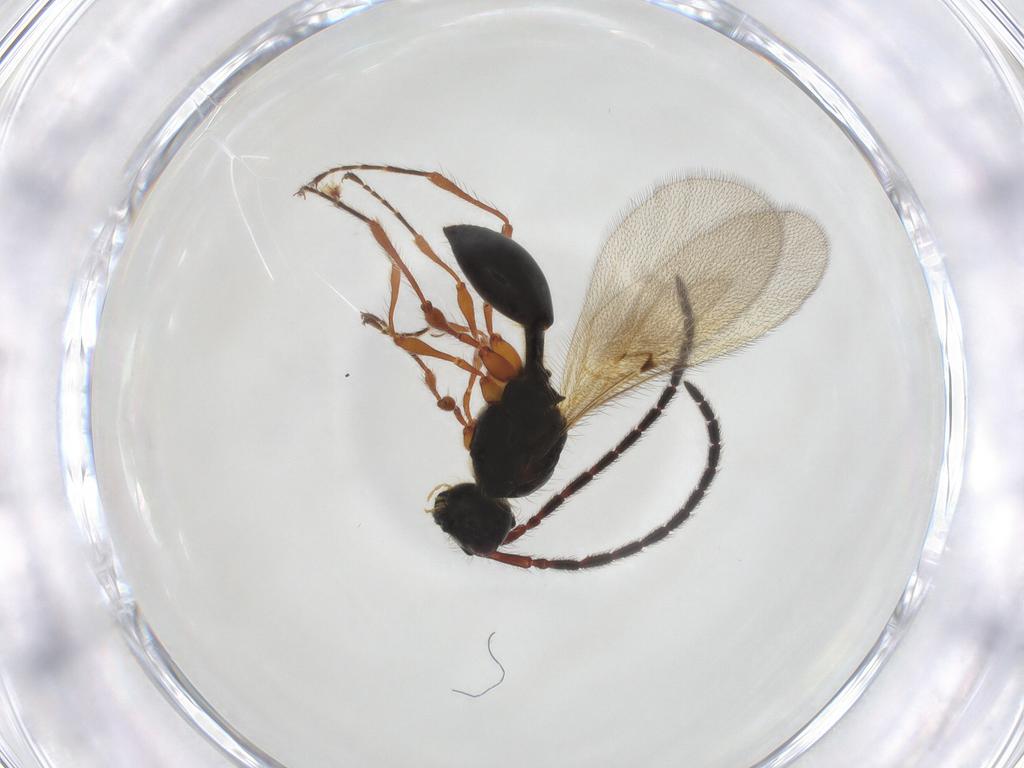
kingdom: Animalia
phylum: Arthropoda
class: Insecta
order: Hymenoptera
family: Diapriidae
